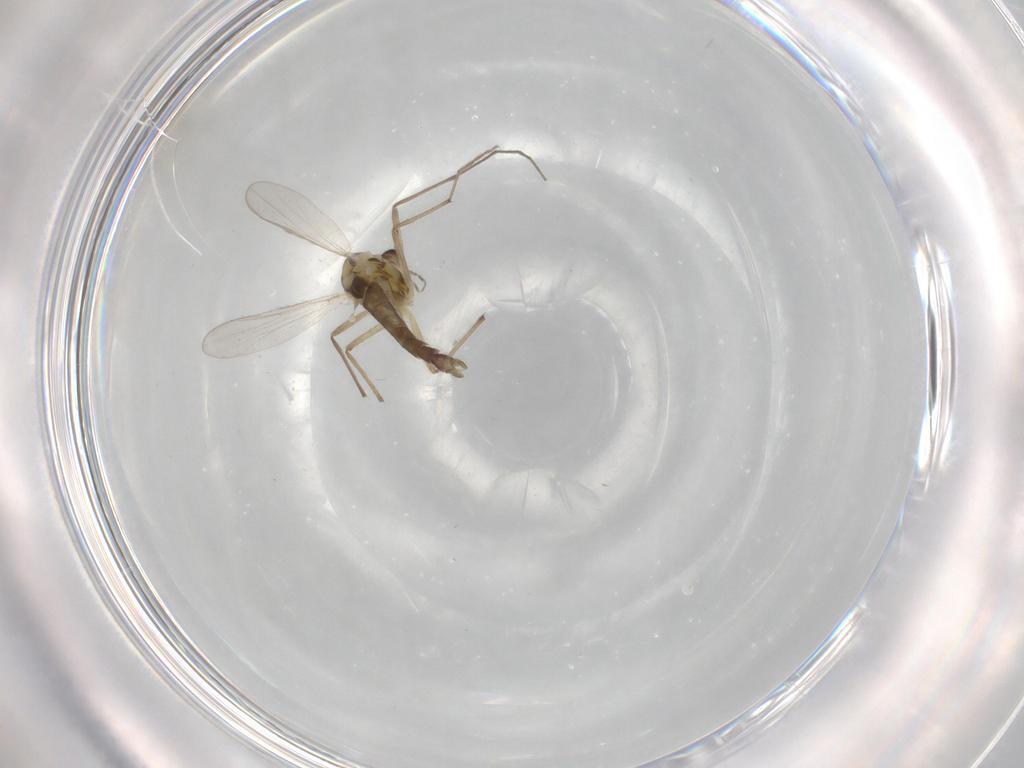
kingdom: Animalia
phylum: Arthropoda
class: Insecta
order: Diptera
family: Chironomidae
